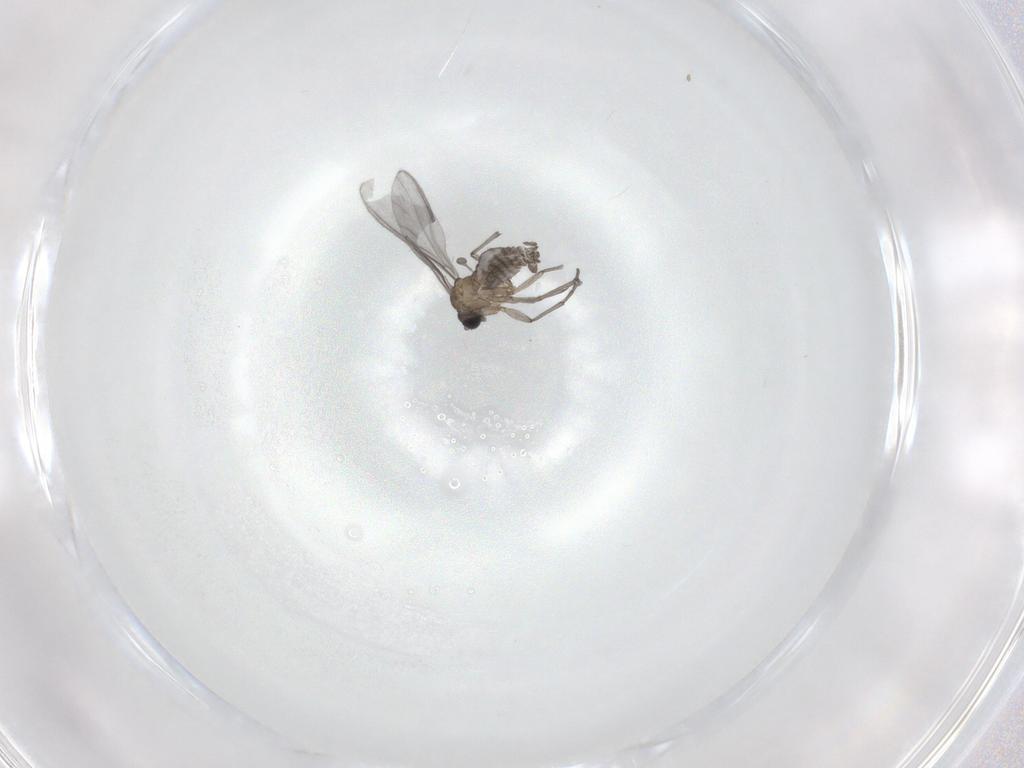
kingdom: Animalia
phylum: Arthropoda
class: Insecta
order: Diptera
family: Sciaridae
